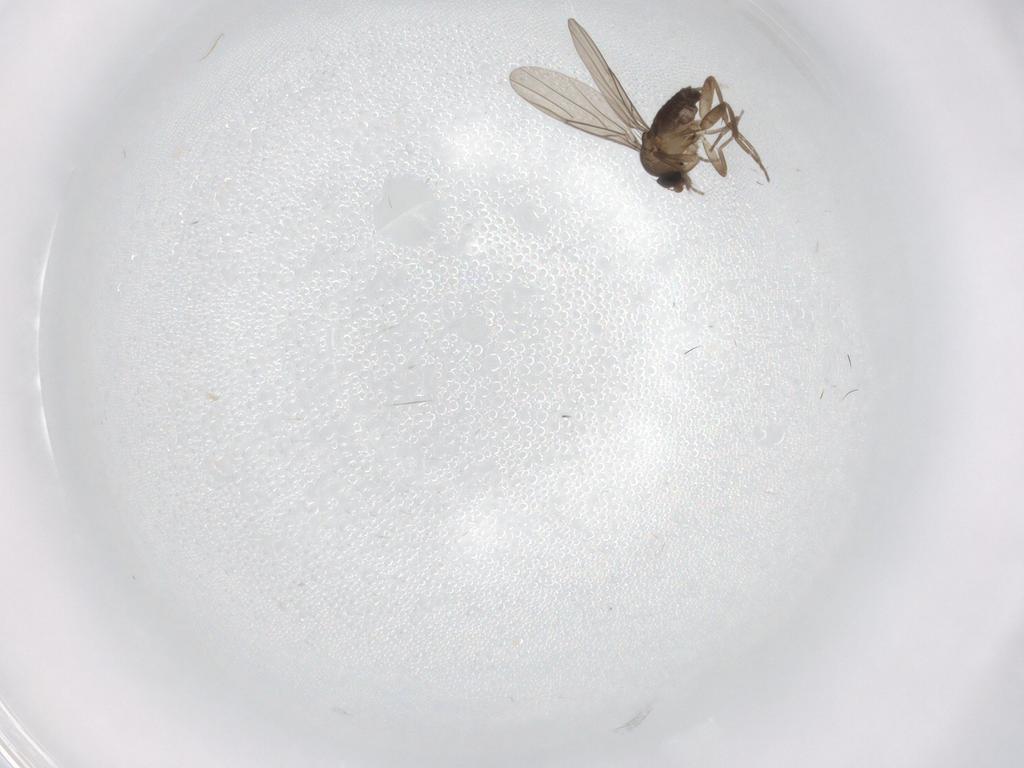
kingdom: Animalia
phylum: Arthropoda
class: Insecta
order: Diptera
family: Phoridae
